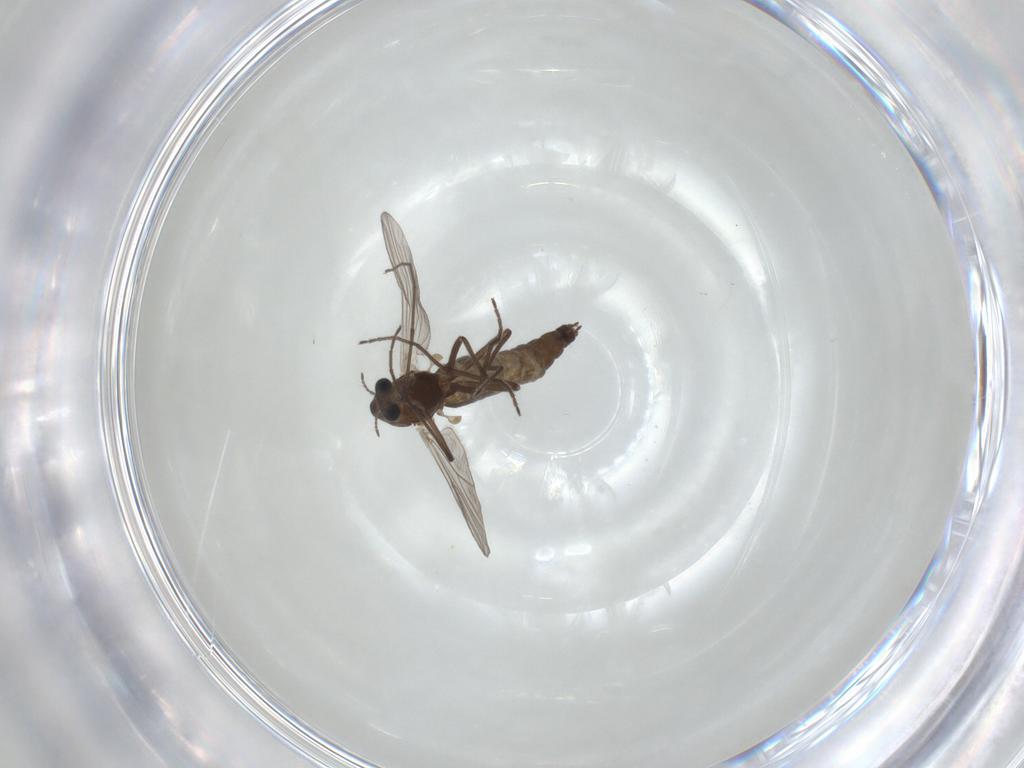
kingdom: Animalia
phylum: Arthropoda
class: Insecta
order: Diptera
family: Chironomidae
